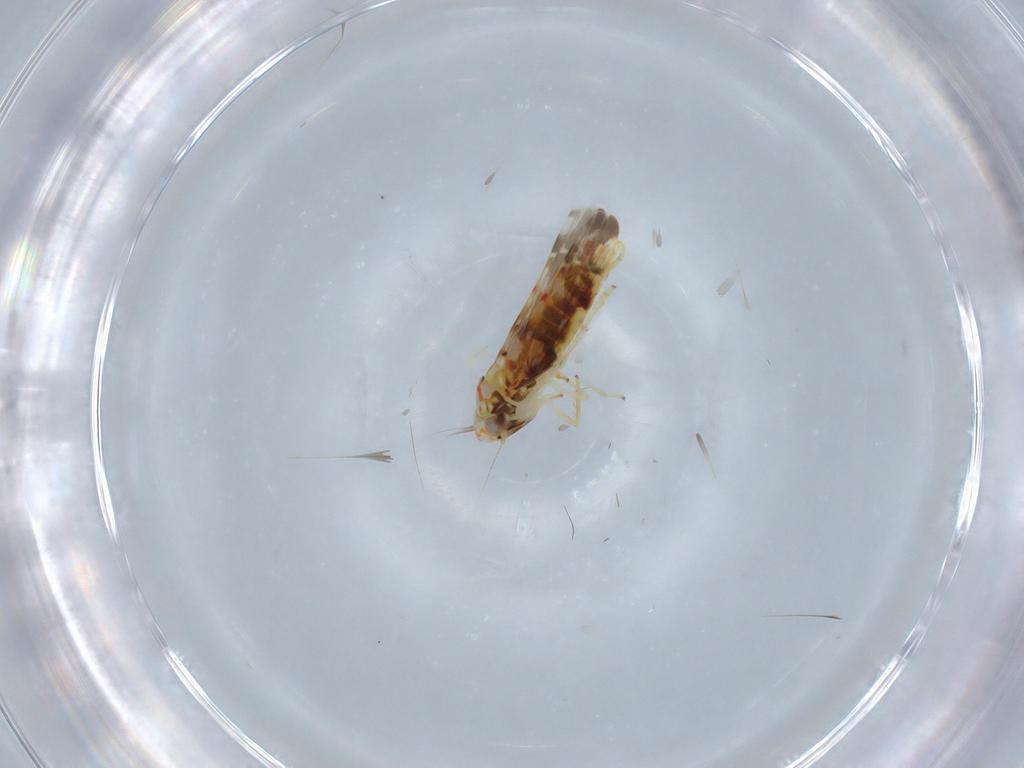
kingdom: Animalia
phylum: Arthropoda
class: Insecta
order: Hemiptera
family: Cicadellidae
